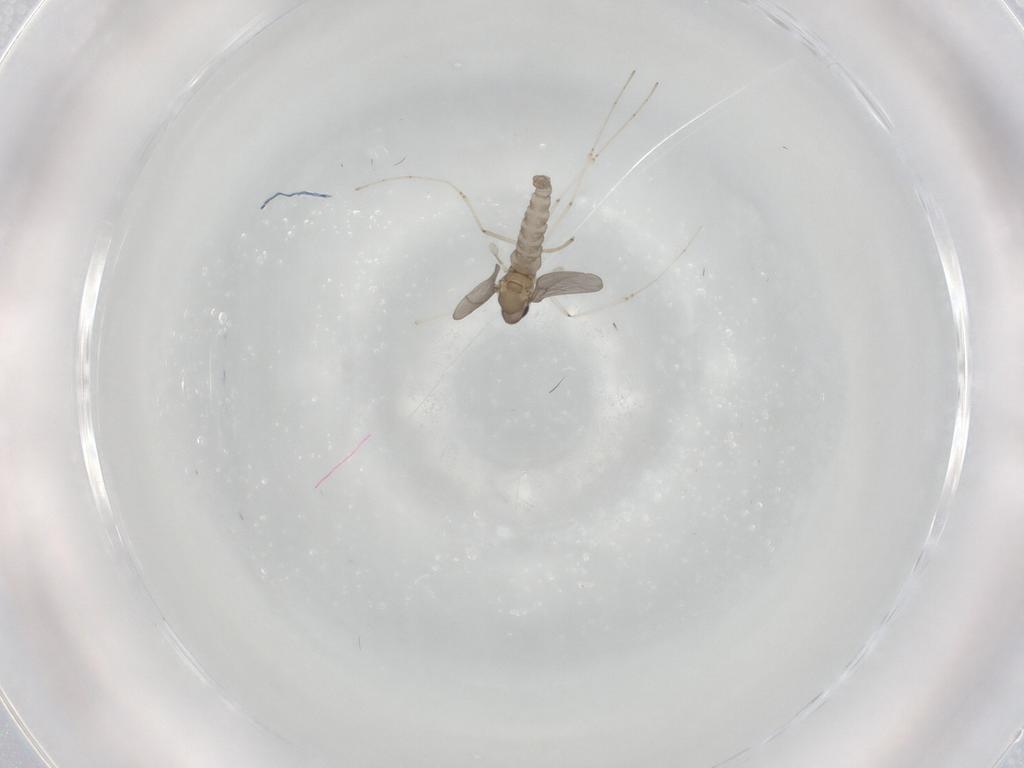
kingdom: Animalia
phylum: Arthropoda
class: Insecta
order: Diptera
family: Cecidomyiidae
